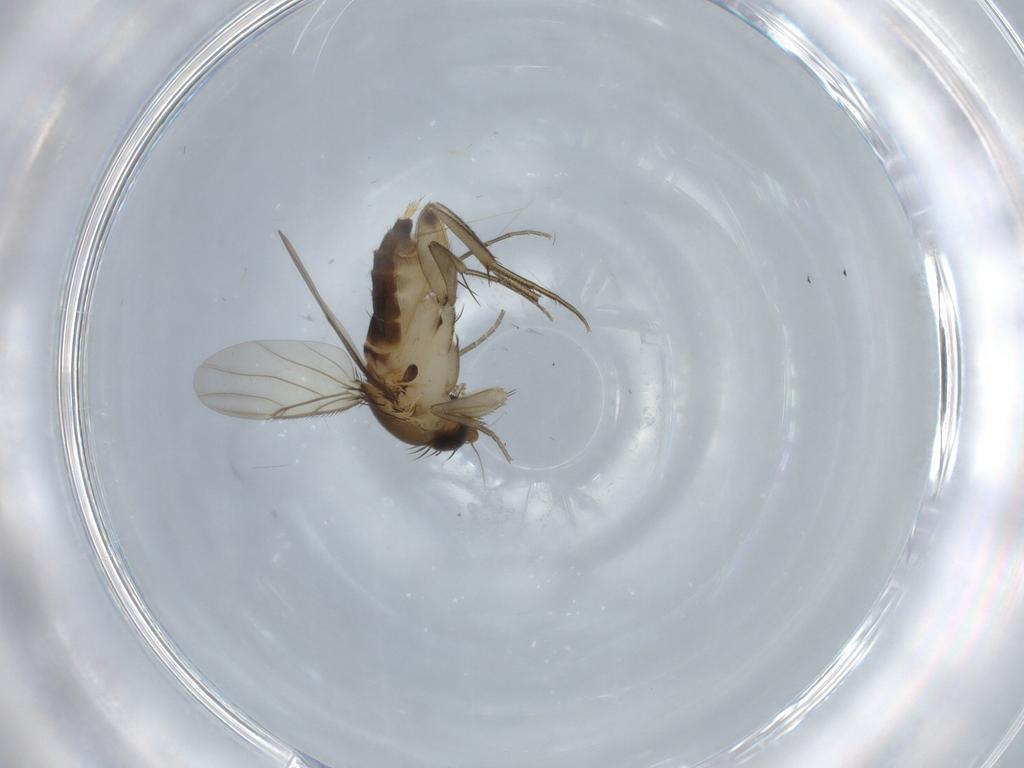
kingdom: Animalia
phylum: Arthropoda
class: Insecta
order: Diptera
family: Phoridae
